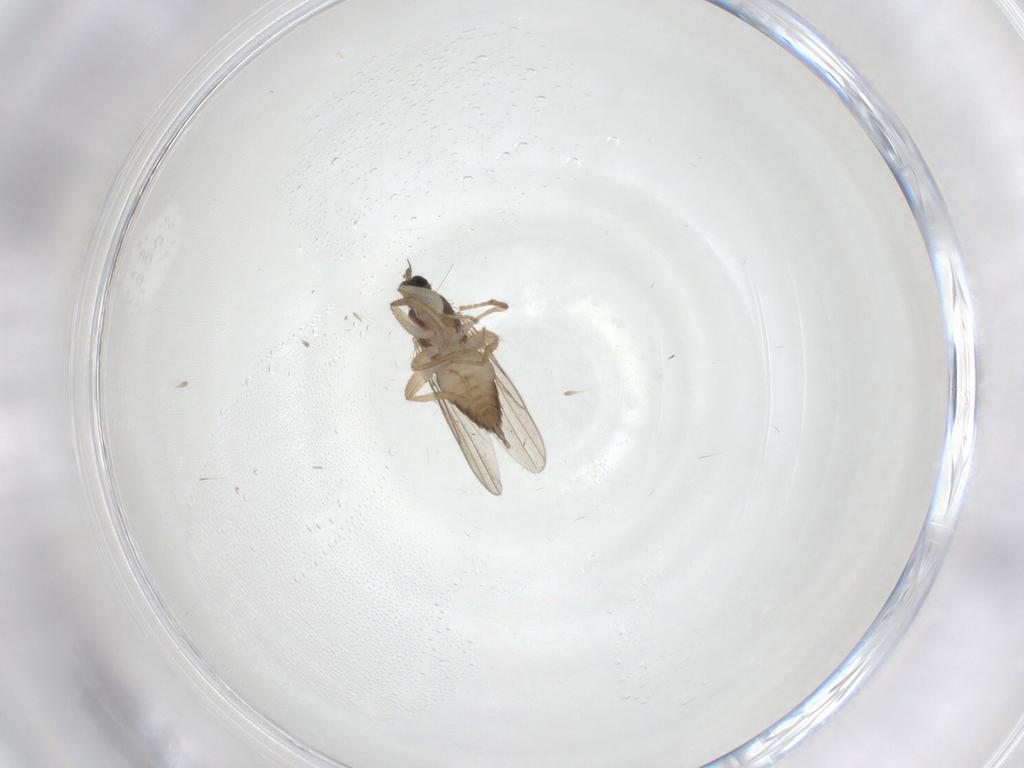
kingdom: Animalia
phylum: Arthropoda
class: Insecta
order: Diptera
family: Hybotidae
